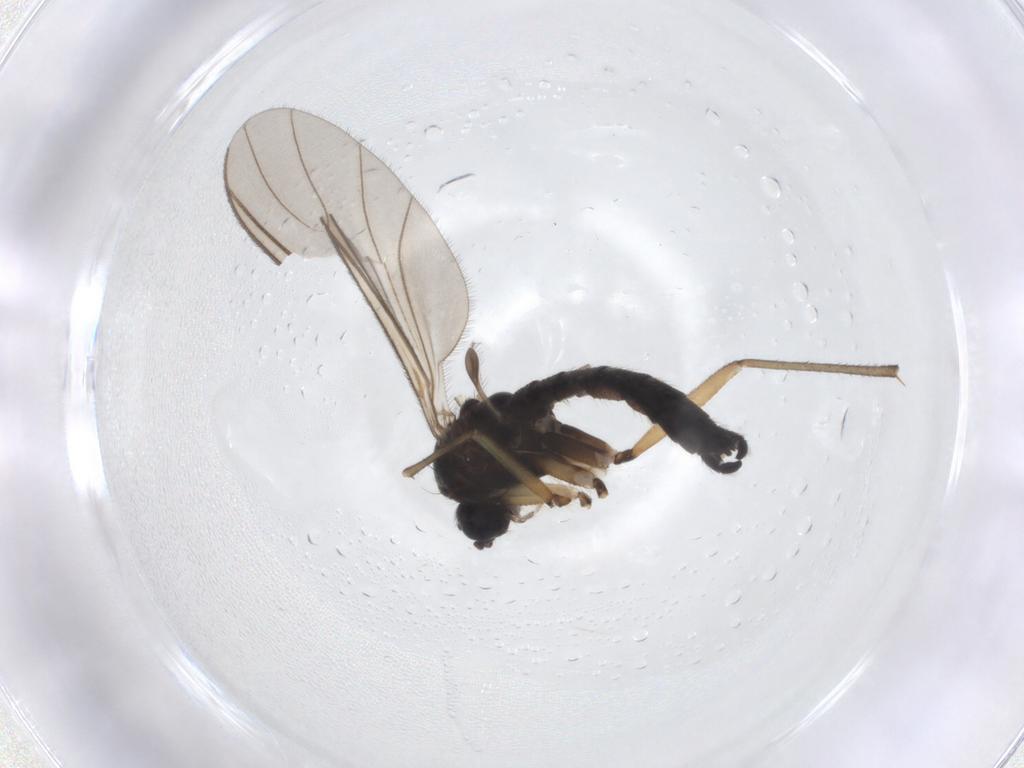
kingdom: Animalia
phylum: Arthropoda
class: Insecta
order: Diptera
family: Sciaridae
